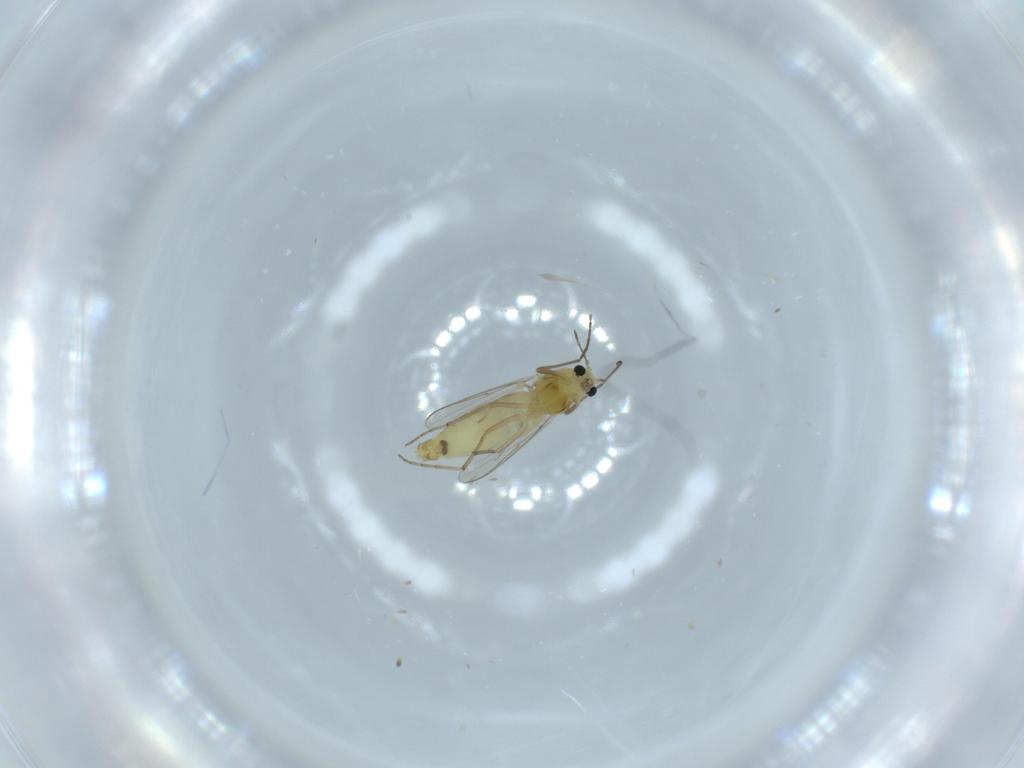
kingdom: Animalia
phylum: Arthropoda
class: Insecta
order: Diptera
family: Chironomidae
